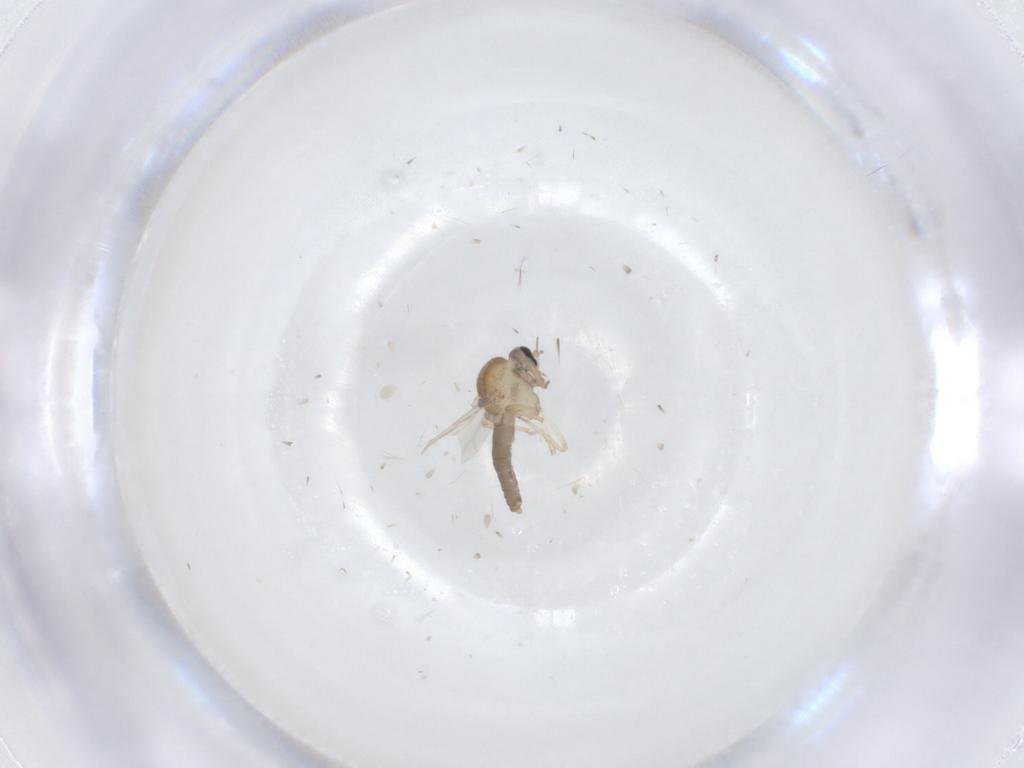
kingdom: Animalia
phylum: Arthropoda
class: Insecta
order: Diptera
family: Ceratopogonidae
